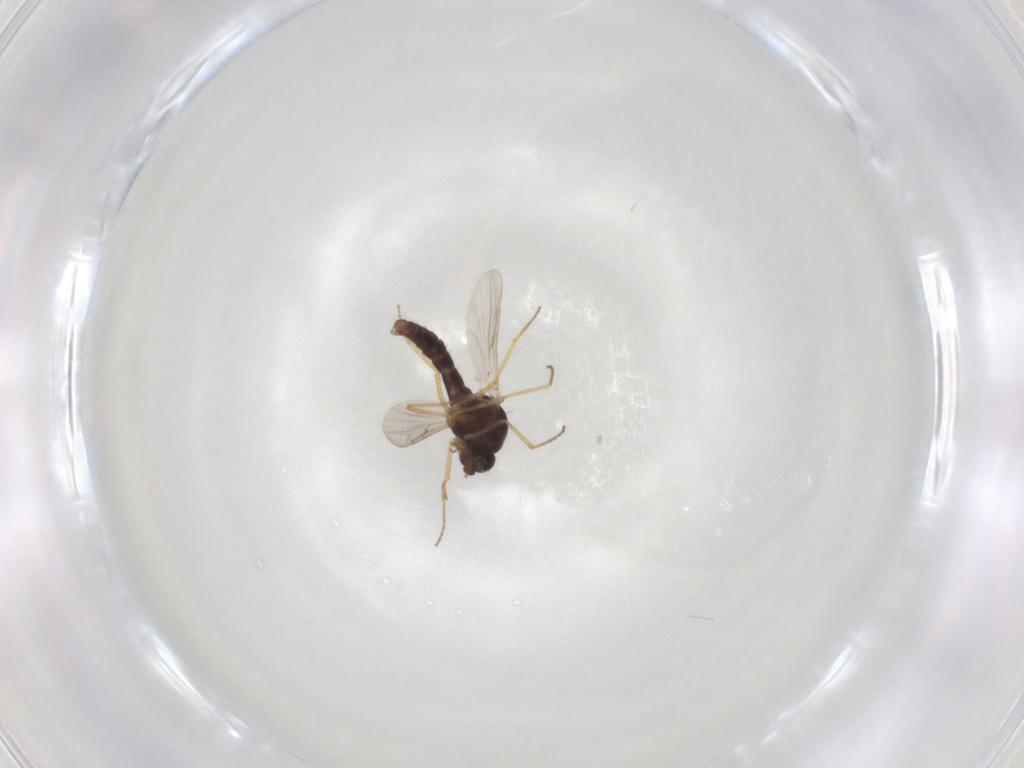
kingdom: Animalia
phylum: Arthropoda
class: Insecta
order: Diptera
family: Ceratopogonidae
